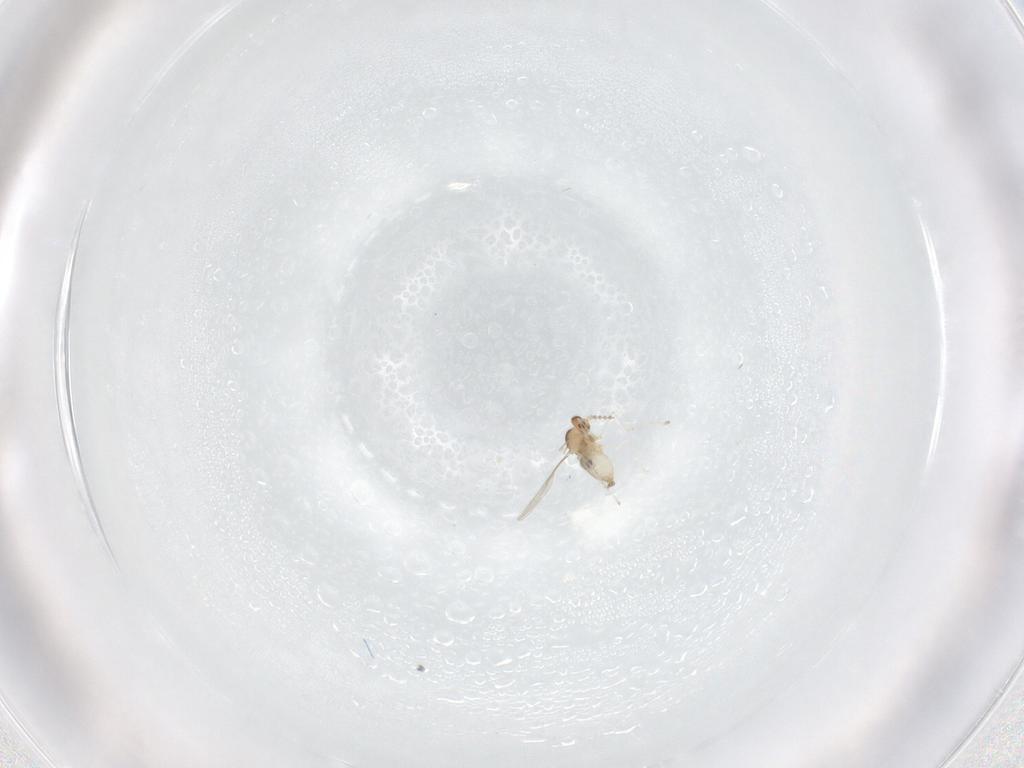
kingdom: Animalia
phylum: Arthropoda
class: Insecta
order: Diptera
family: Cecidomyiidae
